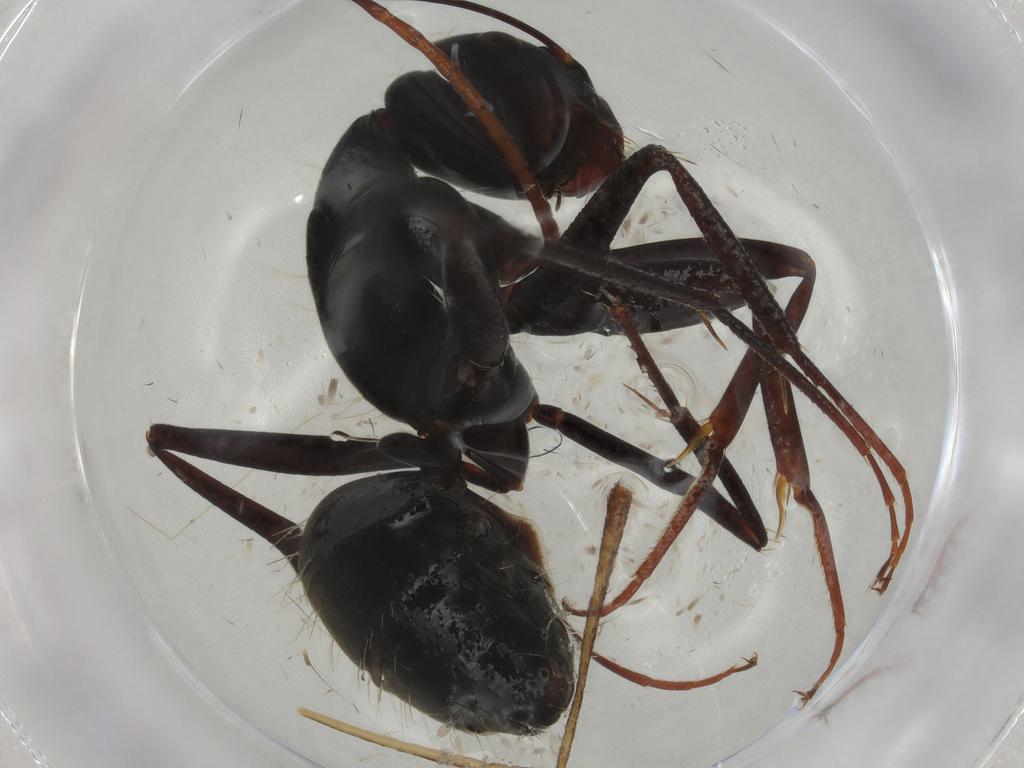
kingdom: Animalia
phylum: Arthropoda
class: Insecta
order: Hymenoptera
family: Formicidae
